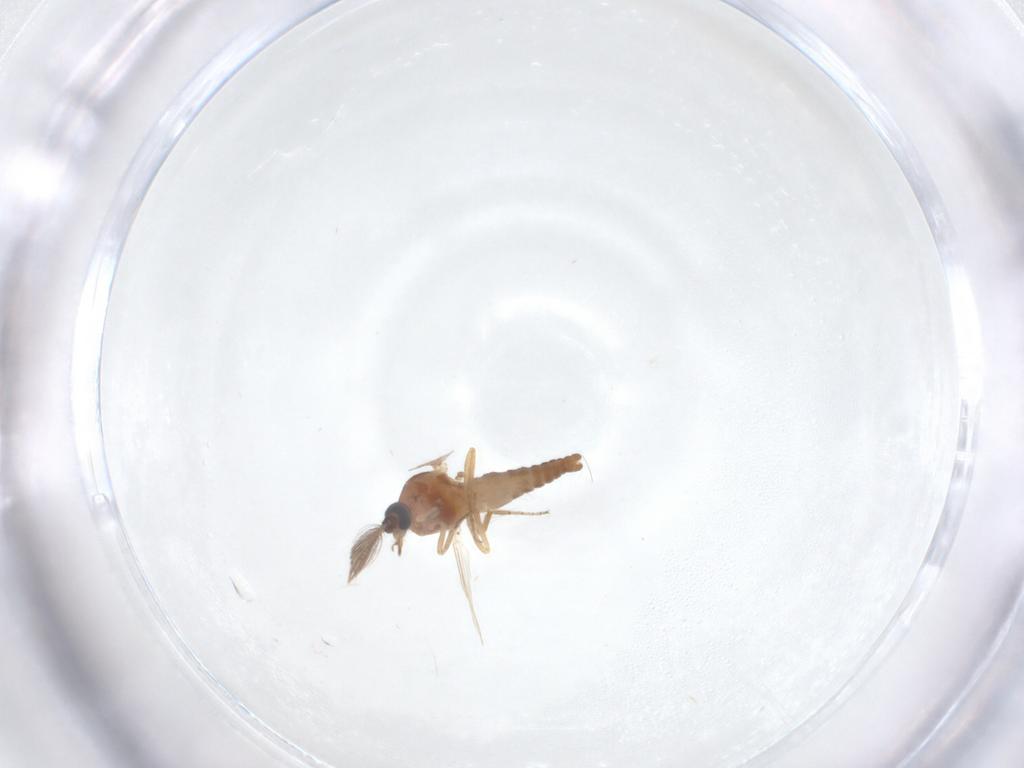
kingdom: Animalia
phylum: Arthropoda
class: Insecta
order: Diptera
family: Ceratopogonidae
